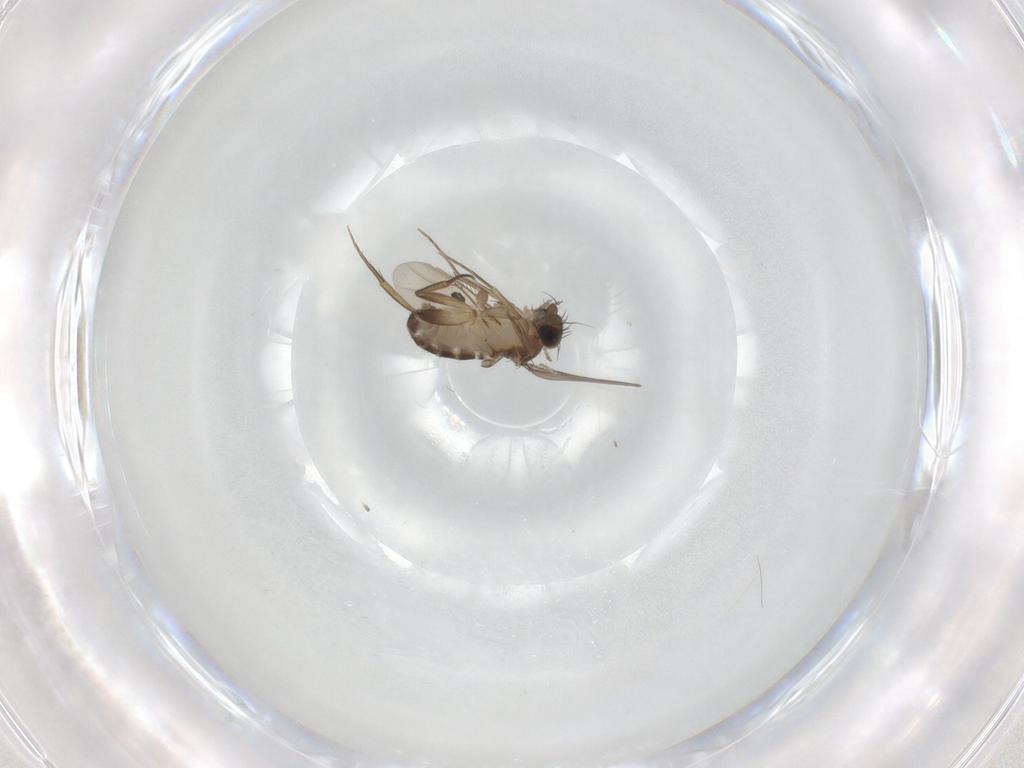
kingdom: Animalia
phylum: Arthropoda
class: Insecta
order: Diptera
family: Phoridae
